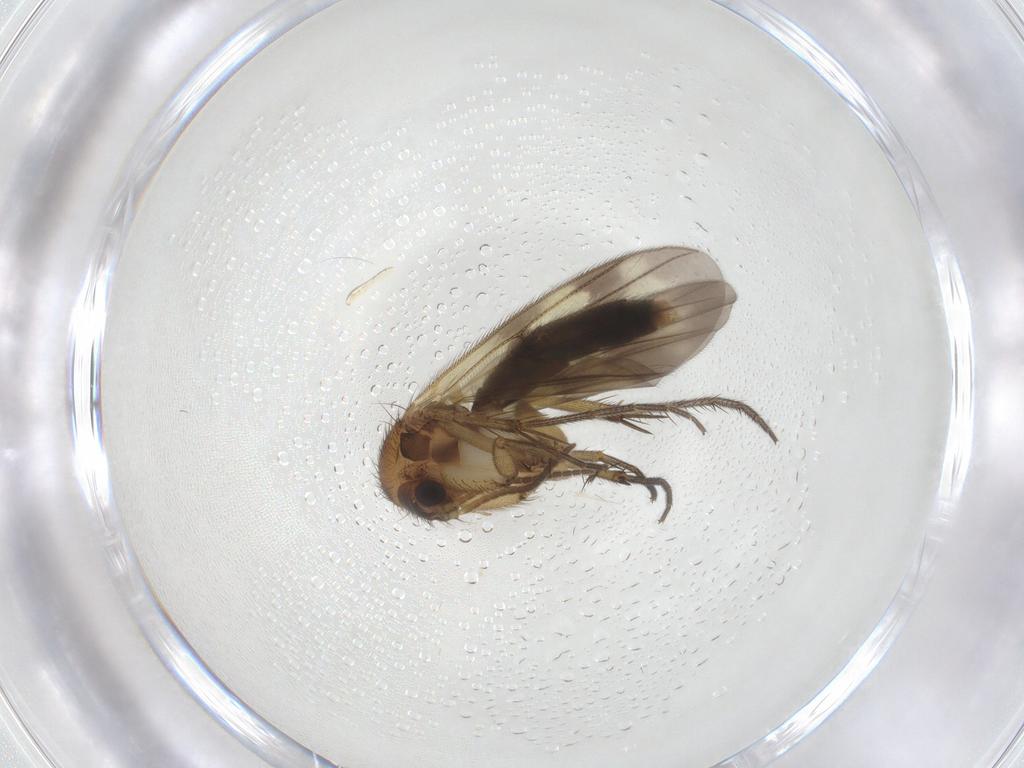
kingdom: Animalia
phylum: Arthropoda
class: Insecta
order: Diptera
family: Mycetophilidae
